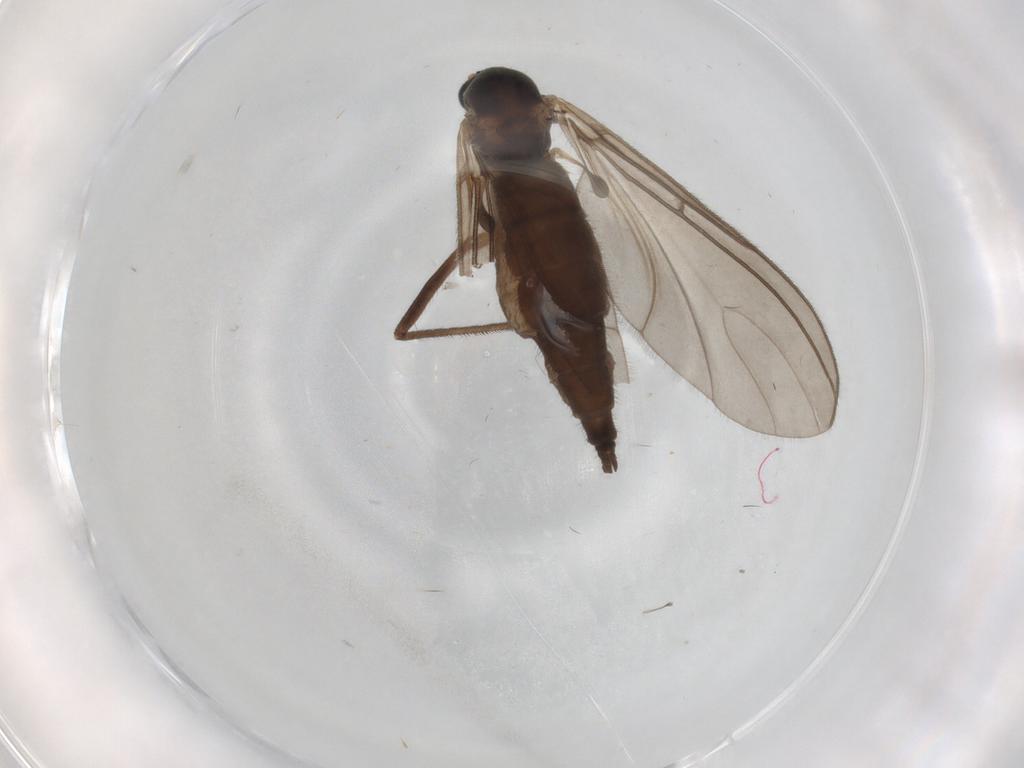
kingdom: Animalia
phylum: Arthropoda
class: Insecta
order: Diptera
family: Sciaridae
